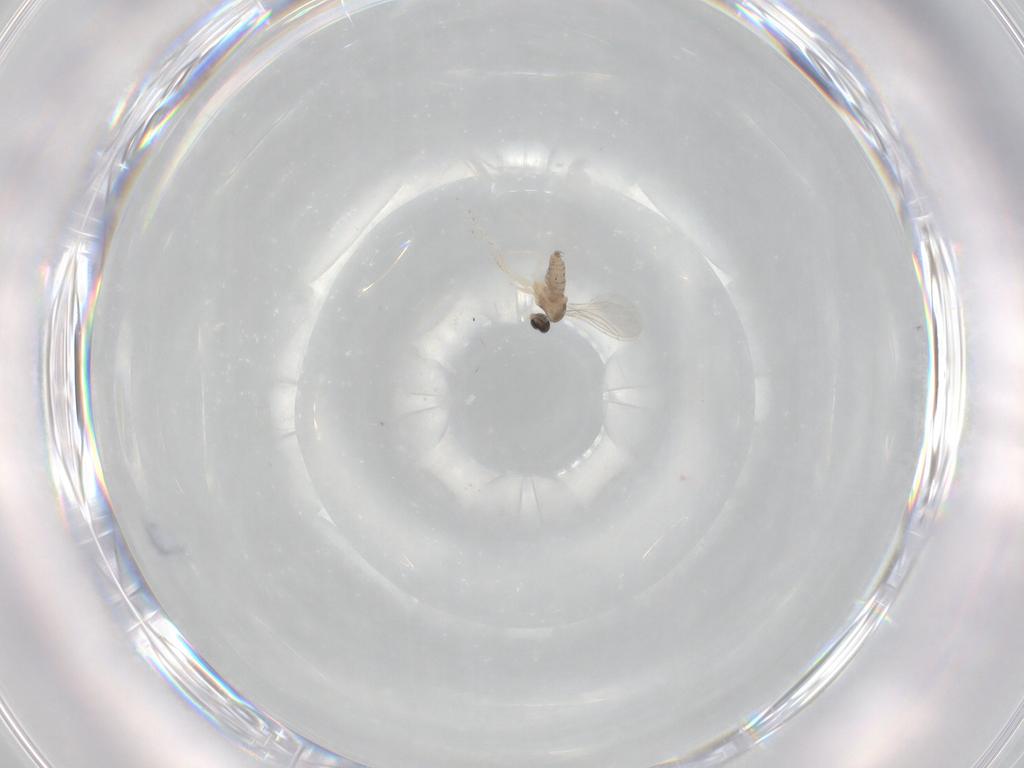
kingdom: Animalia
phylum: Arthropoda
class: Insecta
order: Diptera
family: Cecidomyiidae
